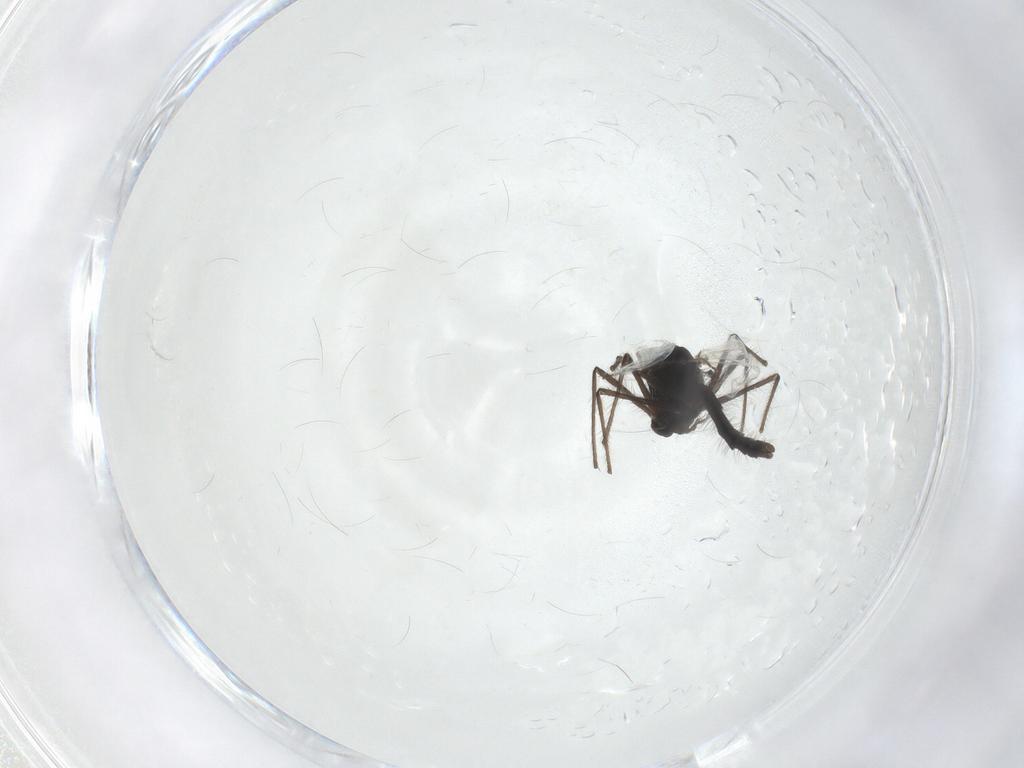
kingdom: Animalia
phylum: Arthropoda
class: Insecta
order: Diptera
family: Chironomidae
